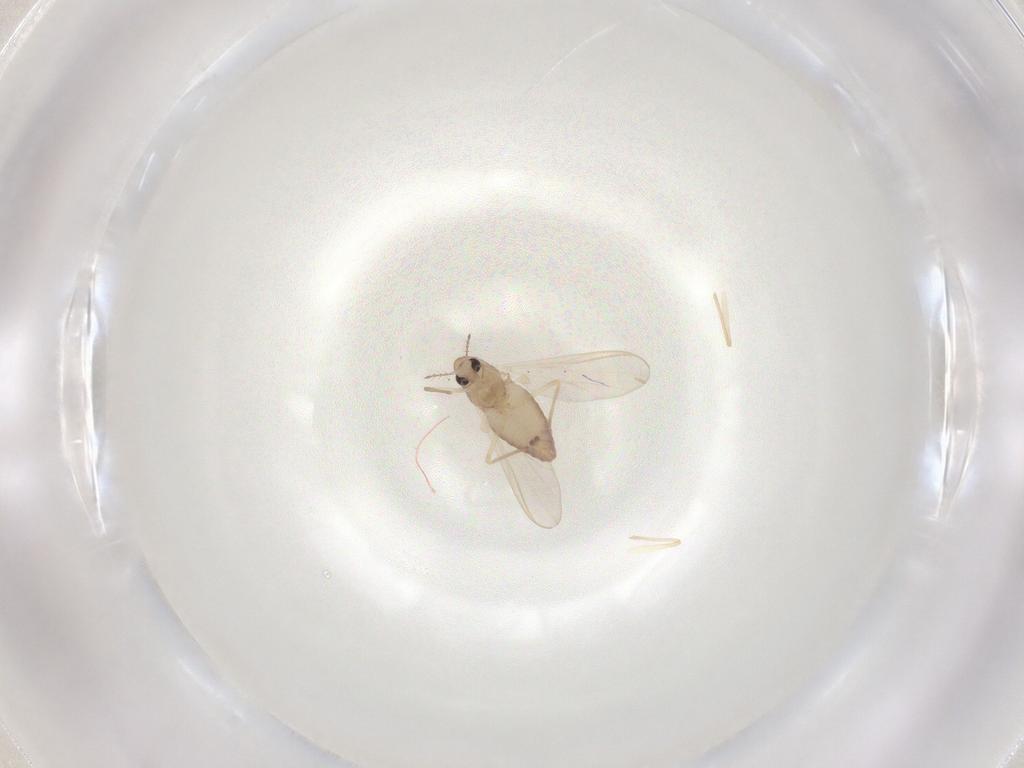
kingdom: Animalia
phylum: Arthropoda
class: Insecta
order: Diptera
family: Chironomidae
